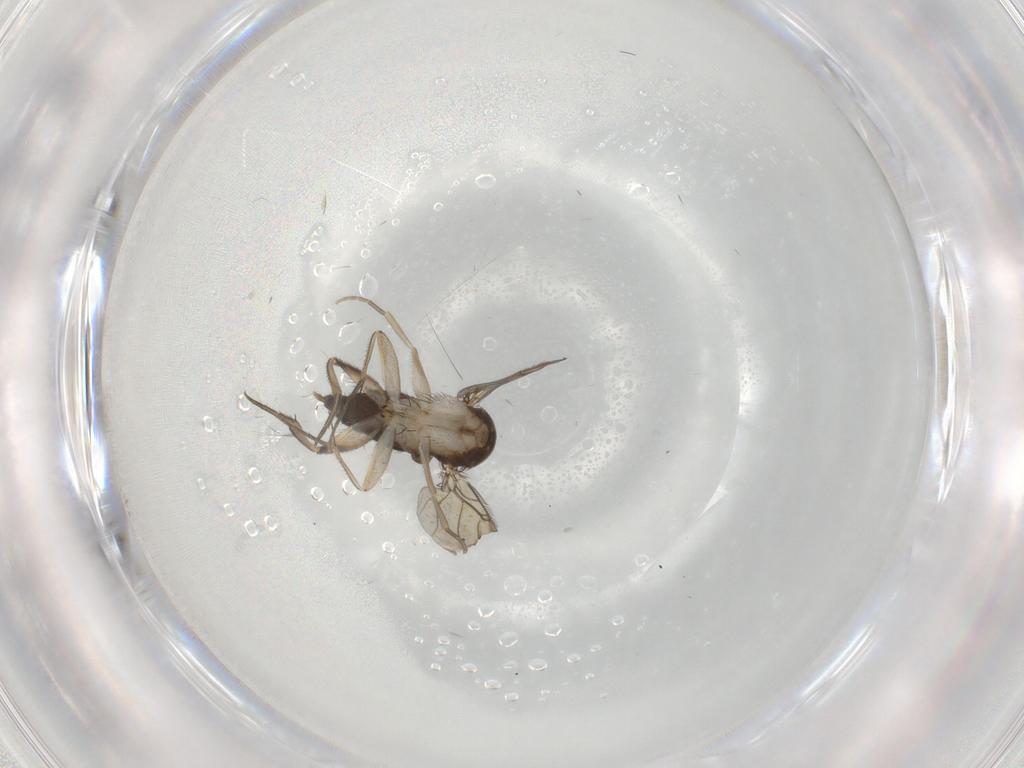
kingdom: Animalia
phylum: Arthropoda
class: Insecta
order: Diptera
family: Phoridae
